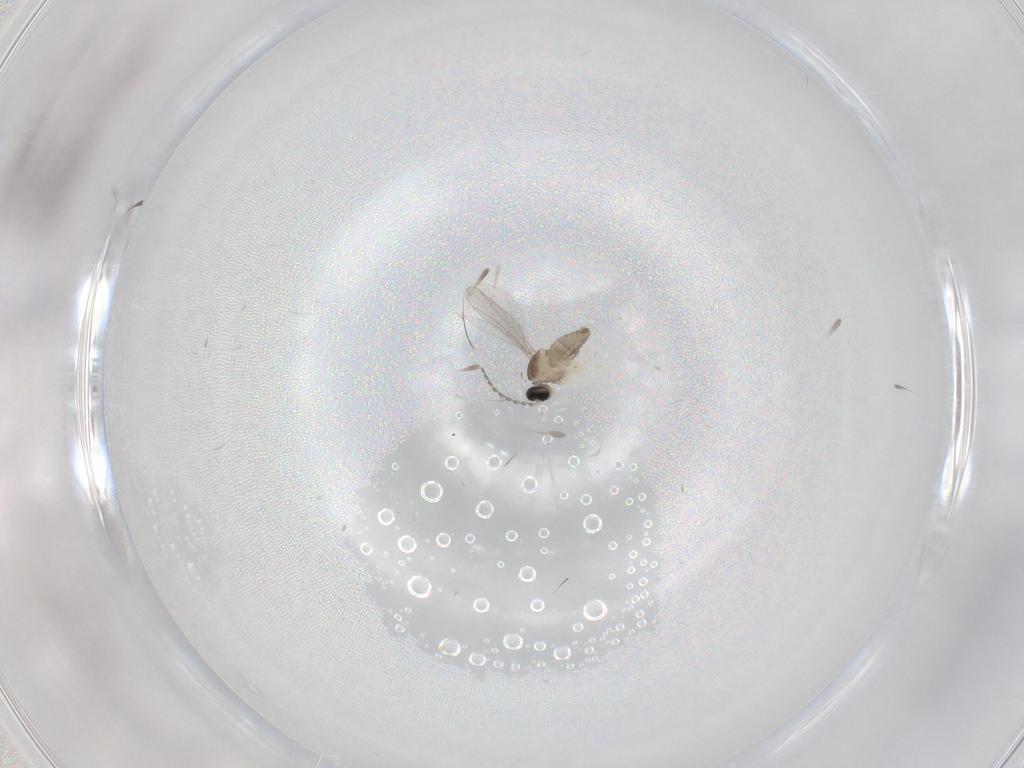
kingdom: Animalia
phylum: Arthropoda
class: Insecta
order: Diptera
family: Cecidomyiidae
